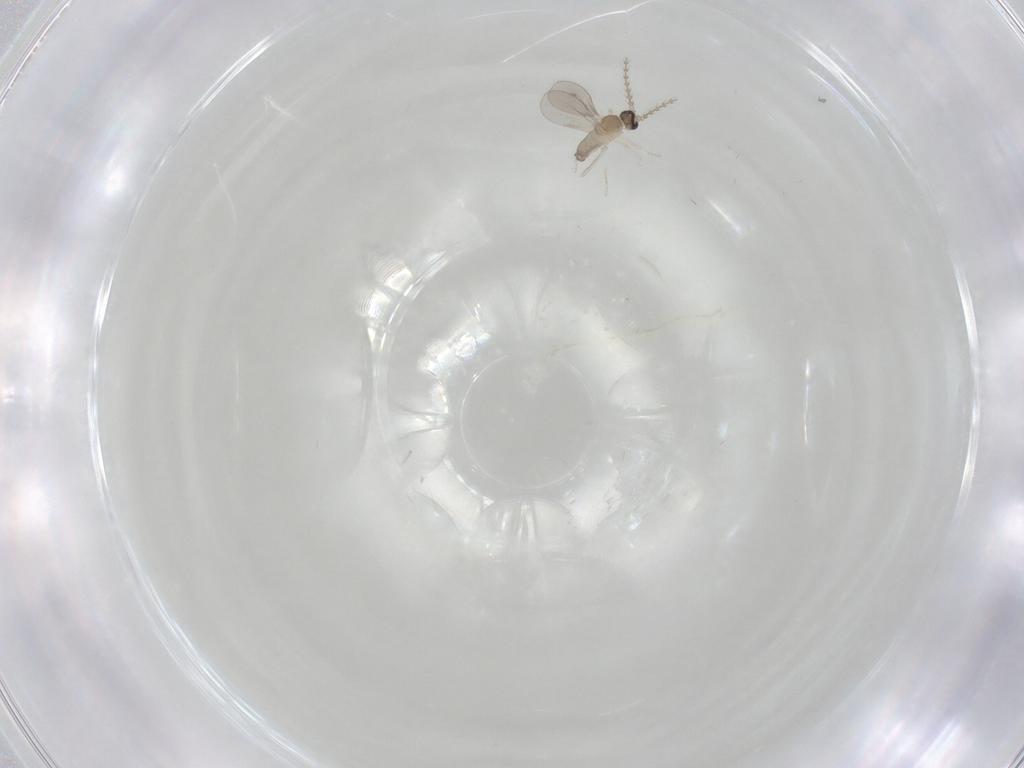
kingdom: Animalia
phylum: Arthropoda
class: Insecta
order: Diptera
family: Cecidomyiidae
